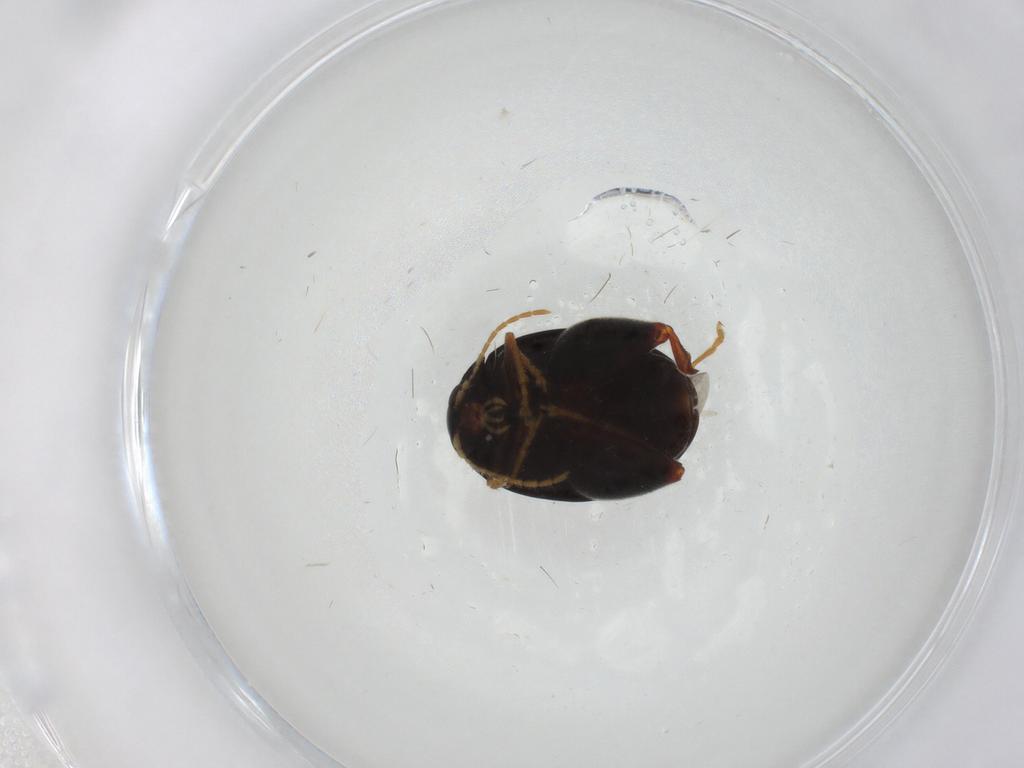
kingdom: Animalia
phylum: Arthropoda
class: Insecta
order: Coleoptera
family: Chrysomelidae
